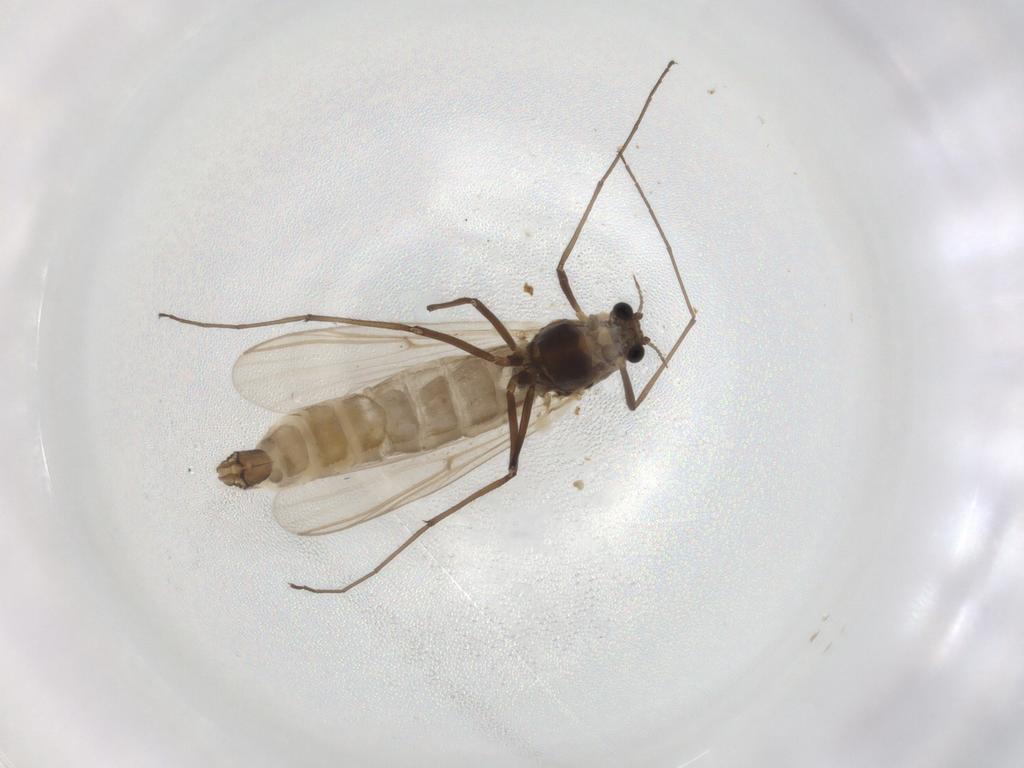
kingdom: Animalia
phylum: Arthropoda
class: Insecta
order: Diptera
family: Chironomidae
